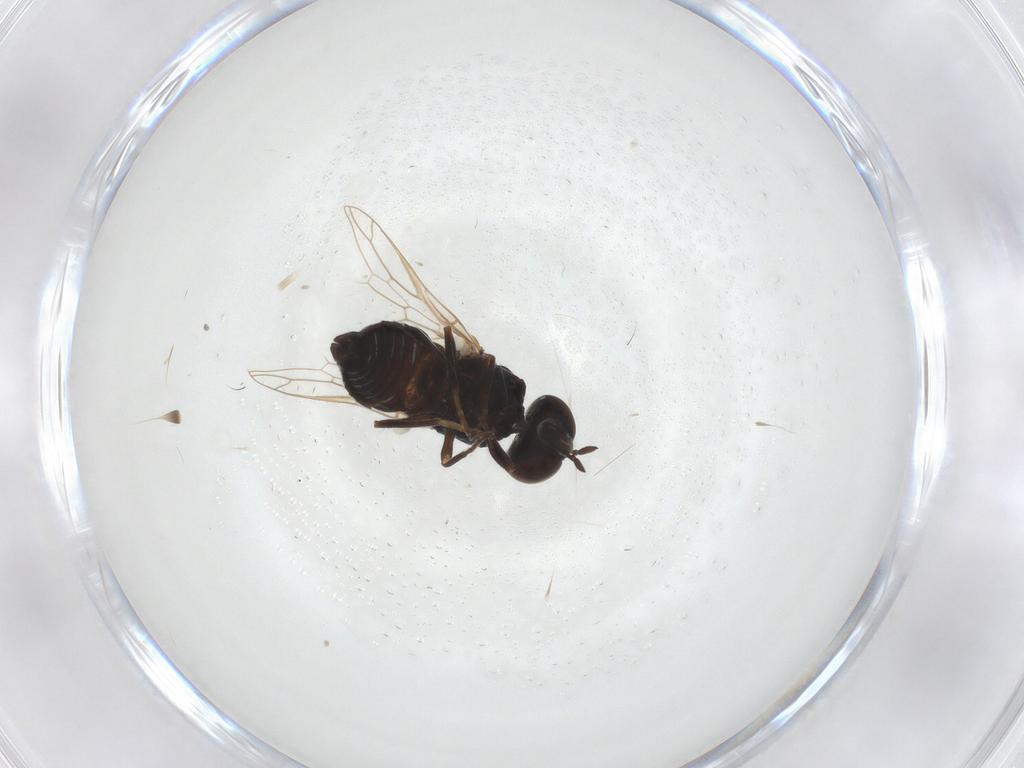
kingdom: Animalia
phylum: Arthropoda
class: Insecta
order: Diptera
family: Scenopinidae
